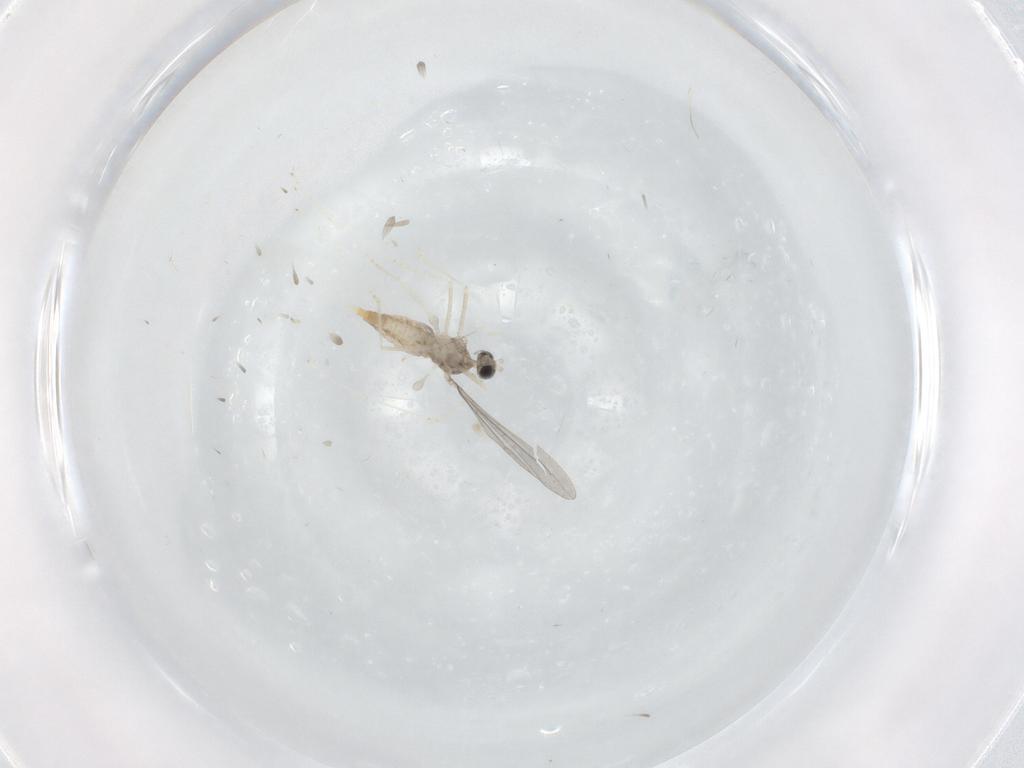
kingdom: Animalia
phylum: Arthropoda
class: Insecta
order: Diptera
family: Cecidomyiidae
